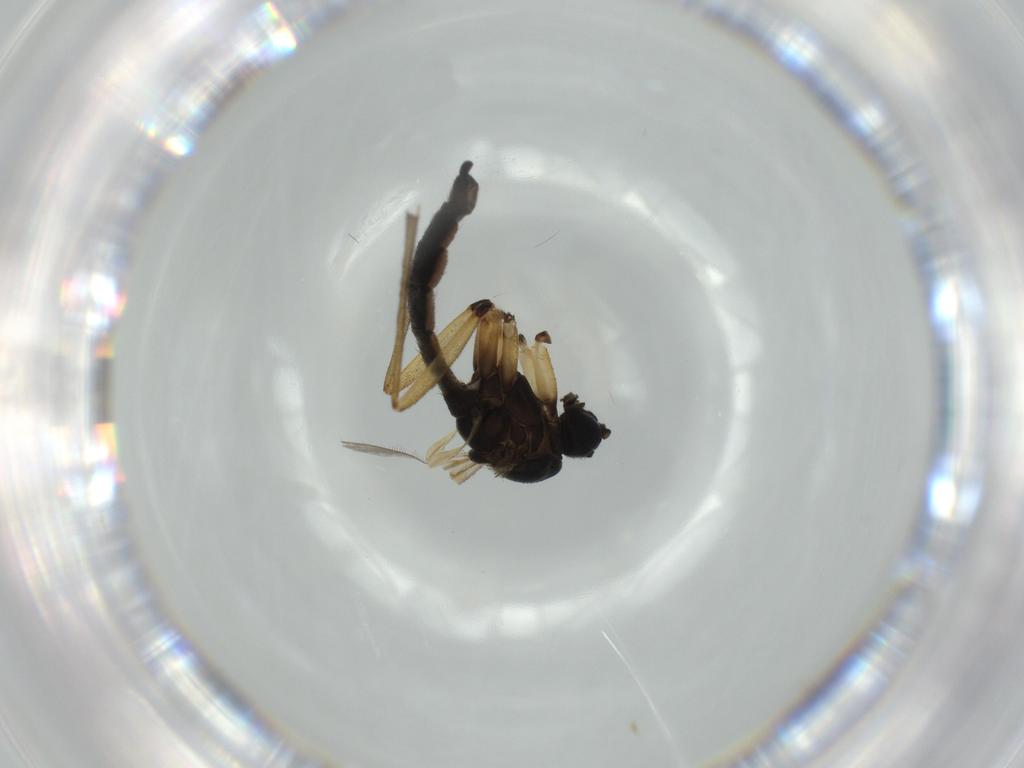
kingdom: Animalia
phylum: Arthropoda
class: Insecta
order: Diptera
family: Sciaridae
